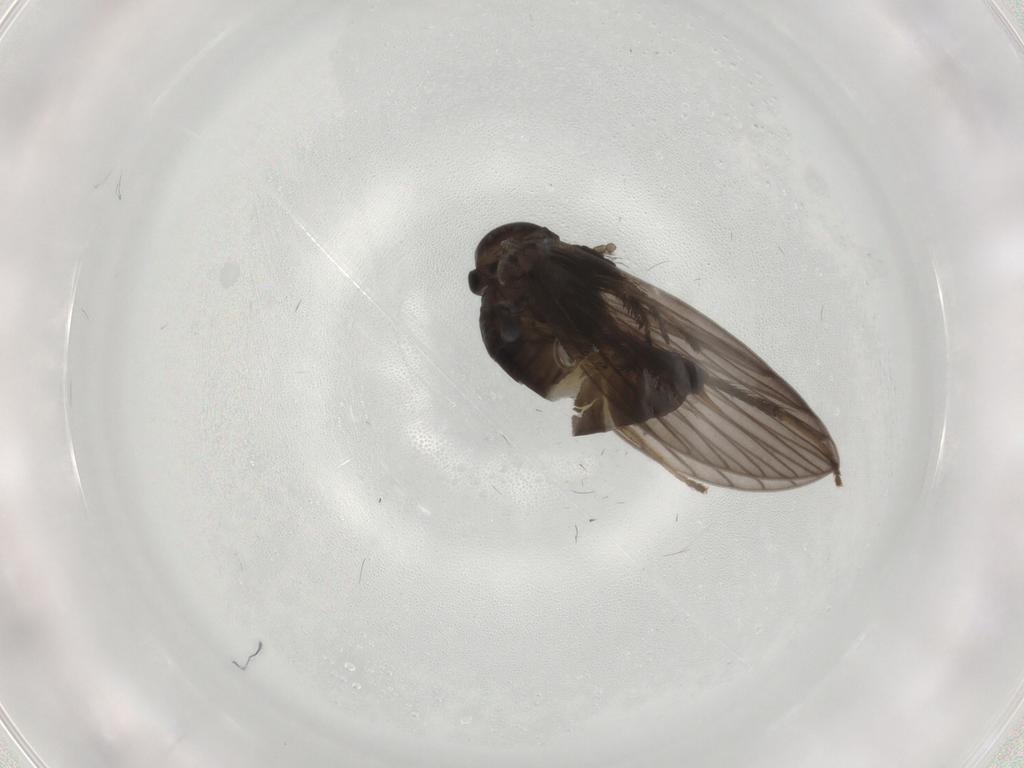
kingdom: Animalia
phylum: Arthropoda
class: Insecta
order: Diptera
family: Psychodidae
